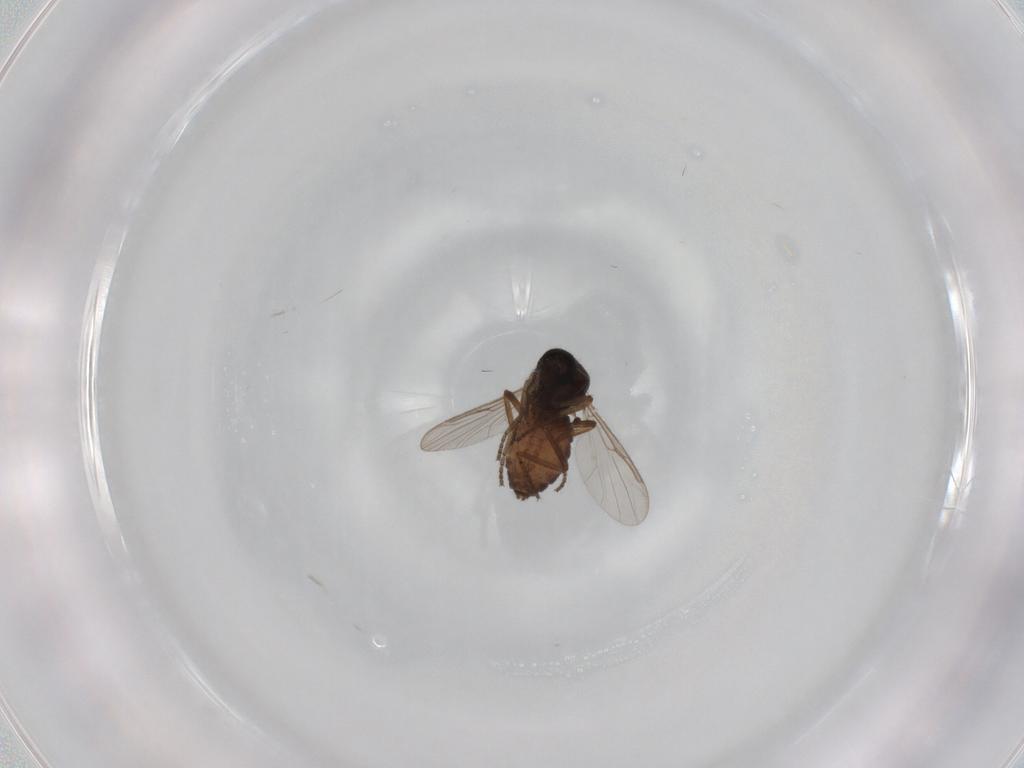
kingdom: Animalia
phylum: Arthropoda
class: Insecta
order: Diptera
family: Ceratopogonidae
